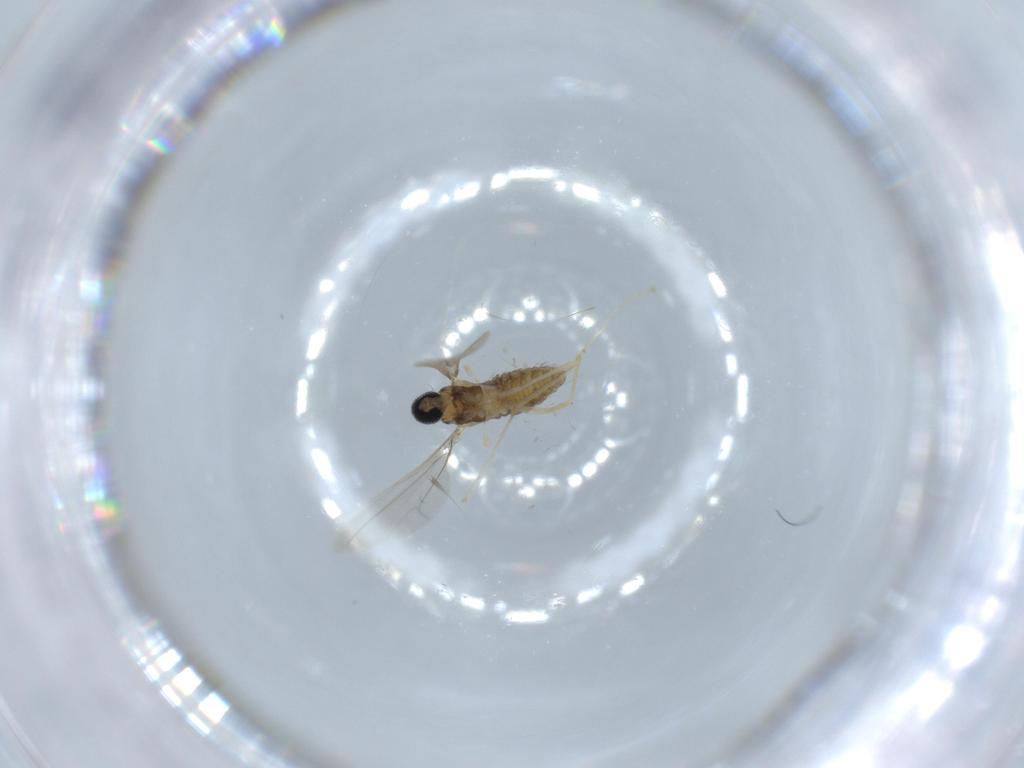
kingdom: Animalia
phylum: Arthropoda
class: Insecta
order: Diptera
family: Cecidomyiidae
